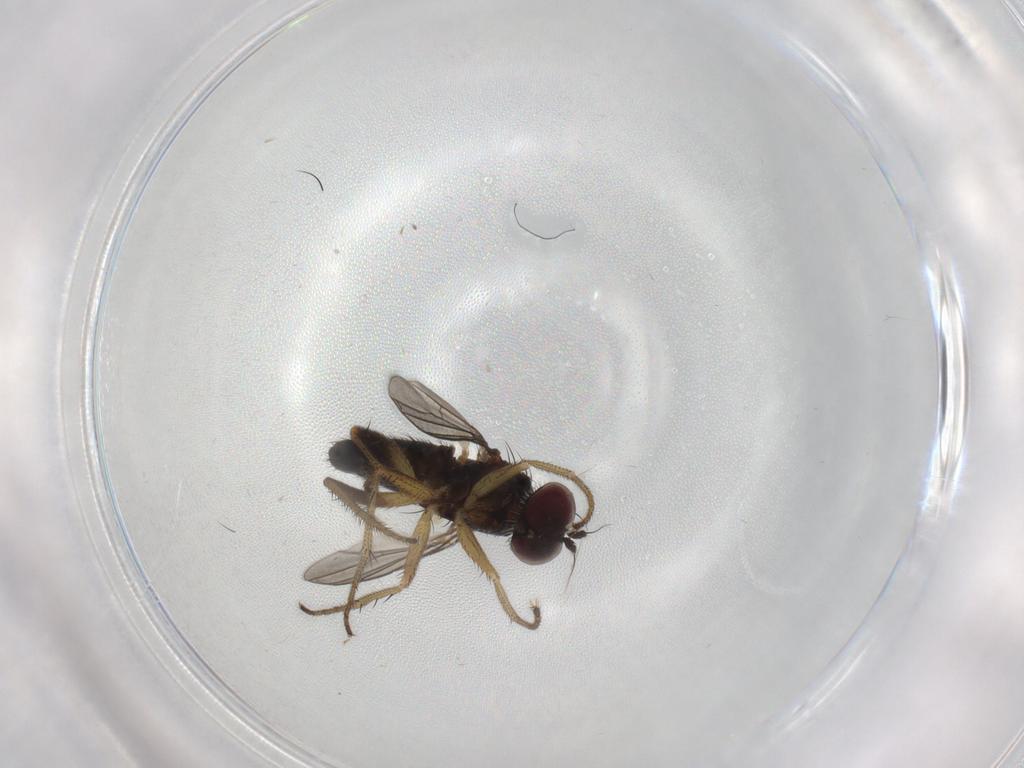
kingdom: Animalia
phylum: Arthropoda
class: Insecta
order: Diptera
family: Dolichopodidae
